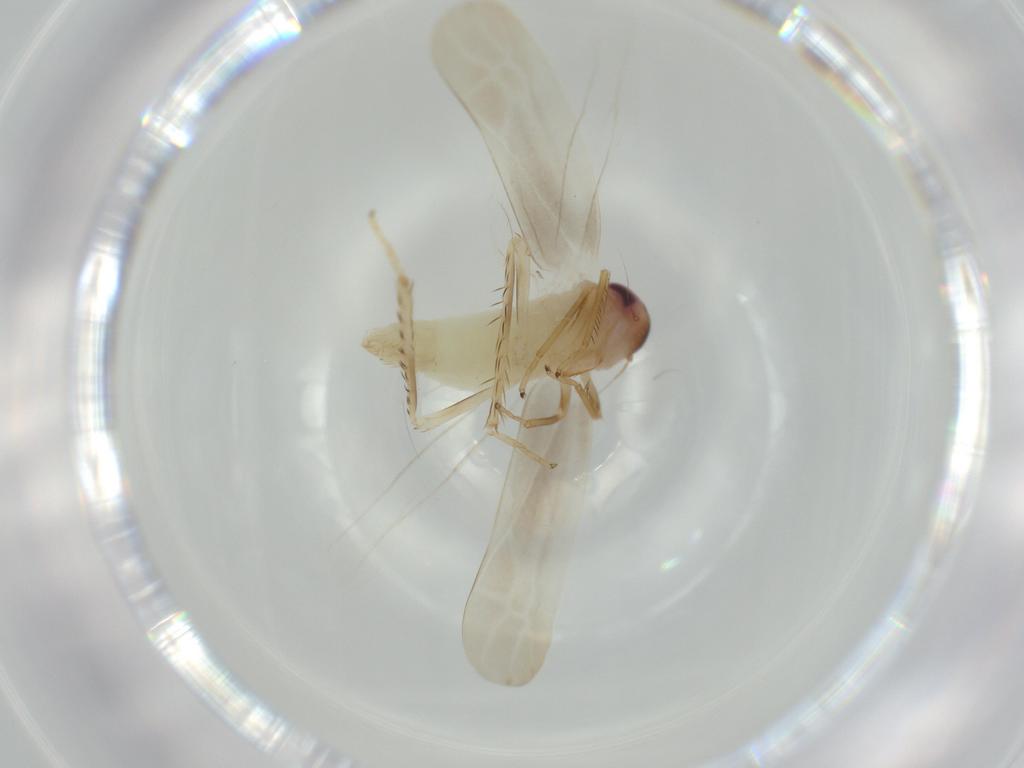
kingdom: Animalia
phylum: Arthropoda
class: Insecta
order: Hemiptera
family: Cicadellidae
